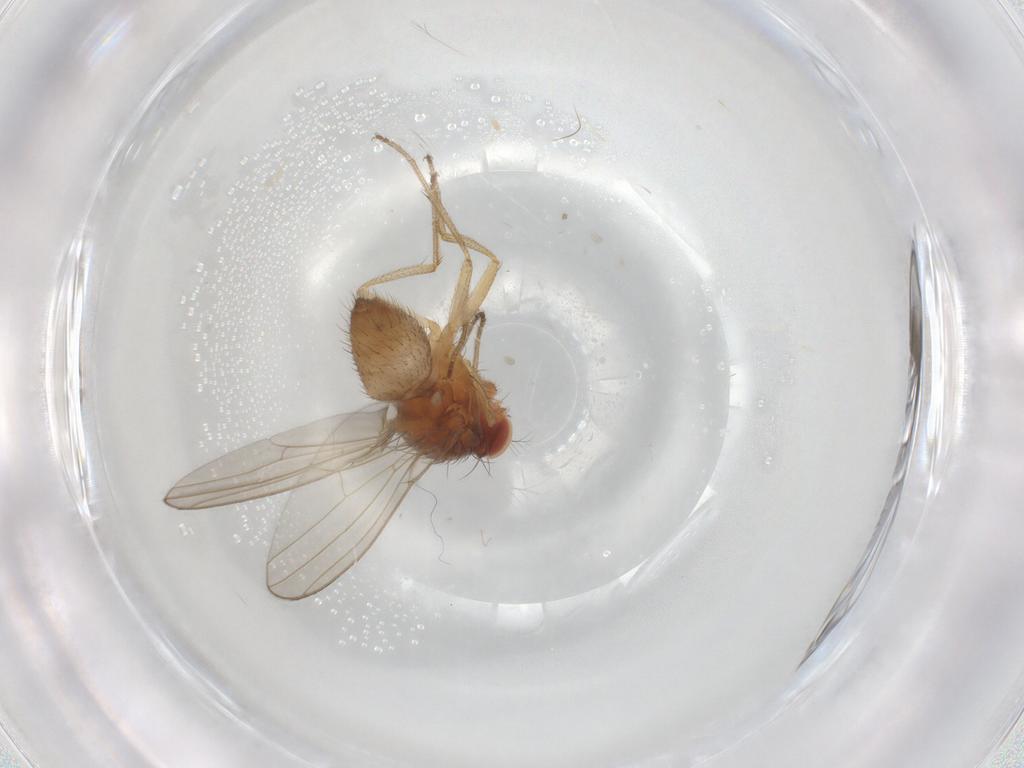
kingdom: Animalia
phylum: Arthropoda
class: Insecta
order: Diptera
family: Drosophilidae
